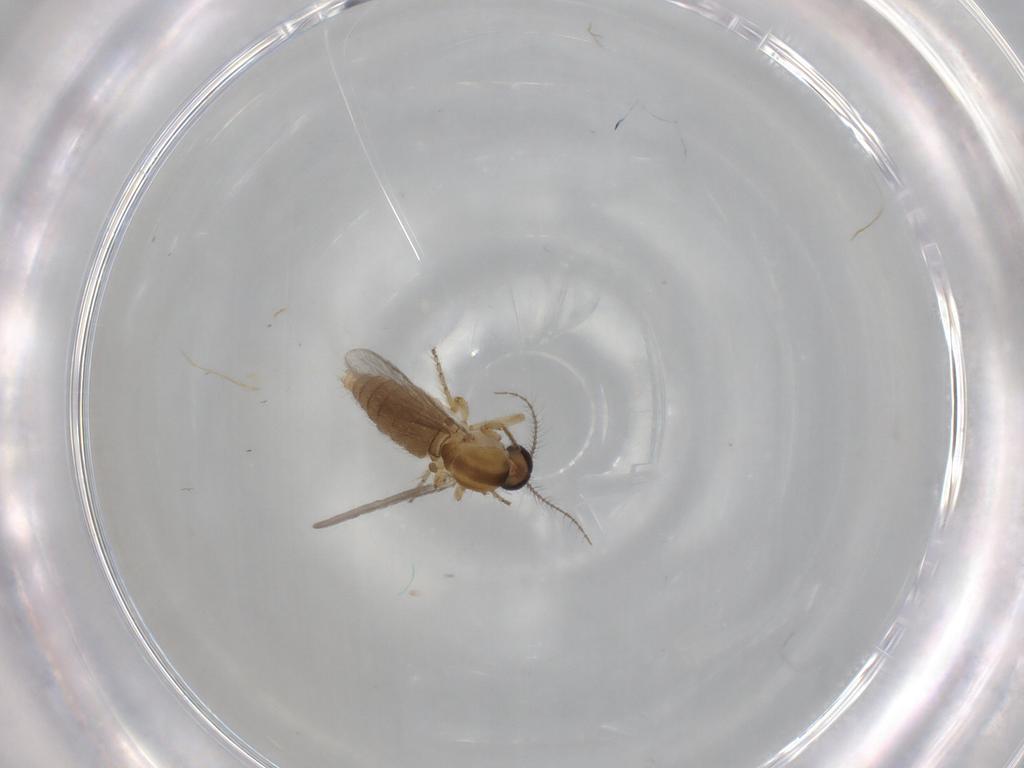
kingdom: Animalia
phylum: Arthropoda
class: Insecta
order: Diptera
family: Ceratopogonidae
